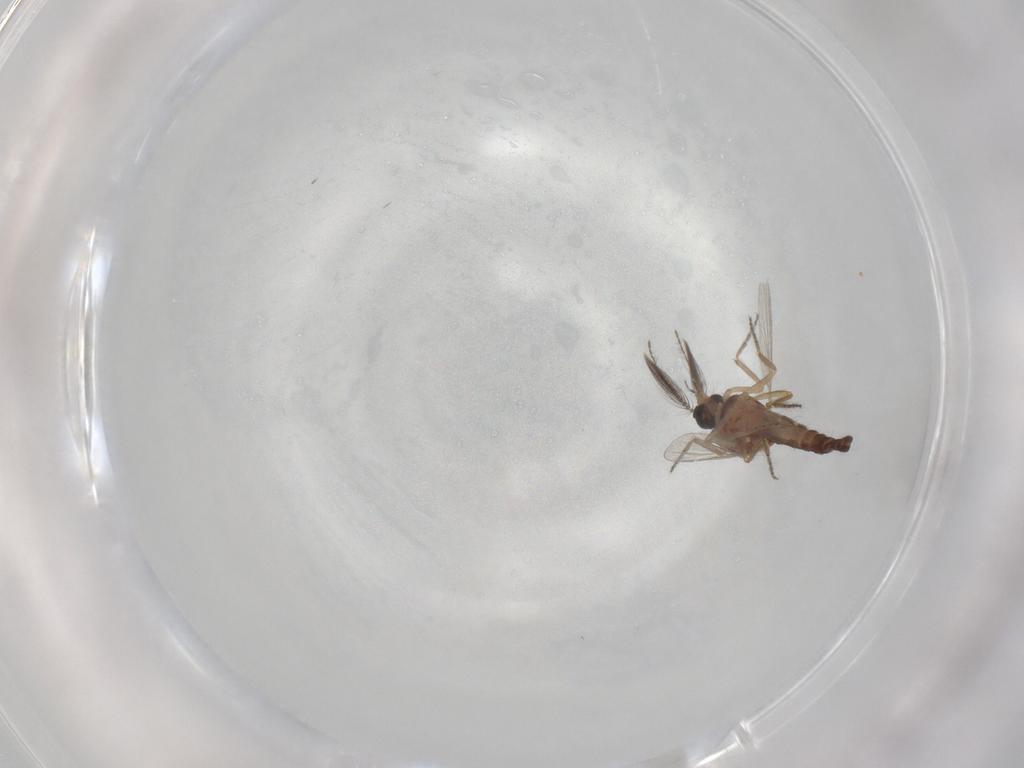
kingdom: Animalia
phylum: Arthropoda
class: Insecta
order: Diptera
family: Ceratopogonidae
